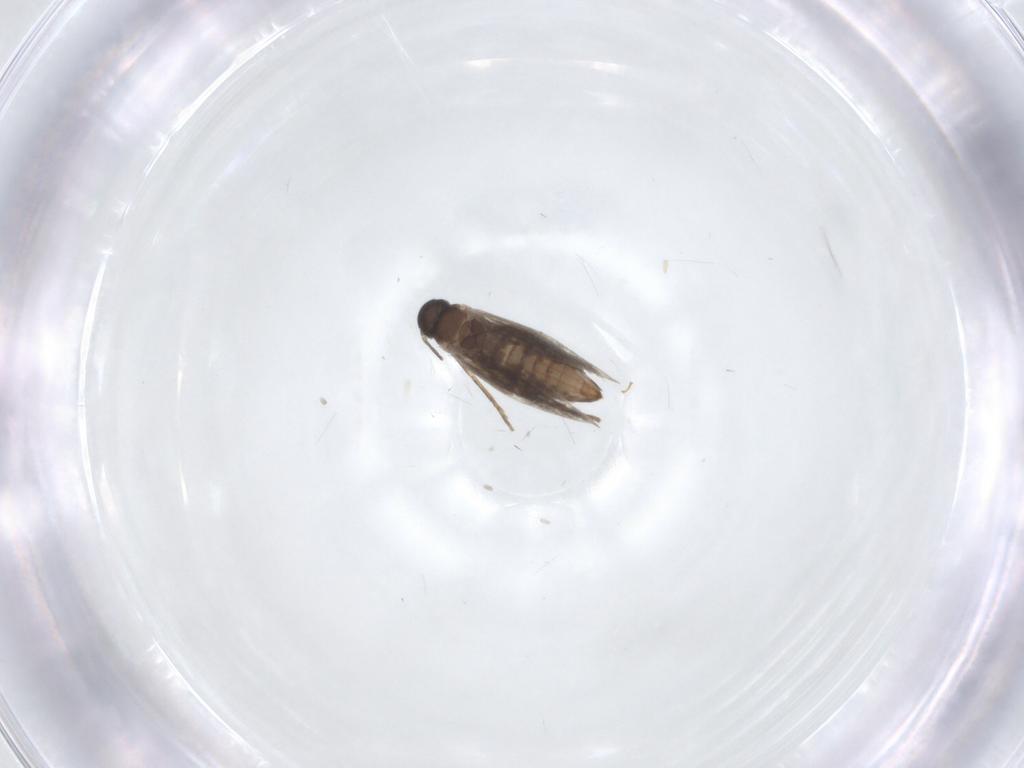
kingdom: Animalia
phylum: Arthropoda
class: Insecta
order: Lepidoptera
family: Heliozelidae
